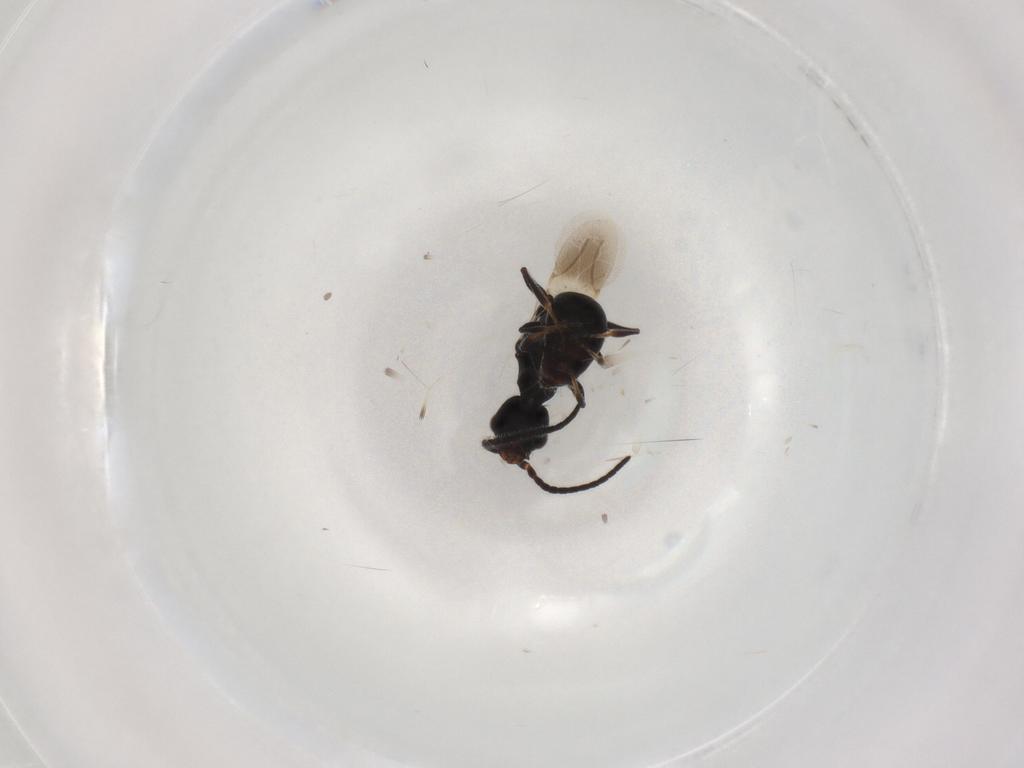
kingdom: Animalia
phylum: Arthropoda
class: Insecta
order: Hymenoptera
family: Bethylidae
